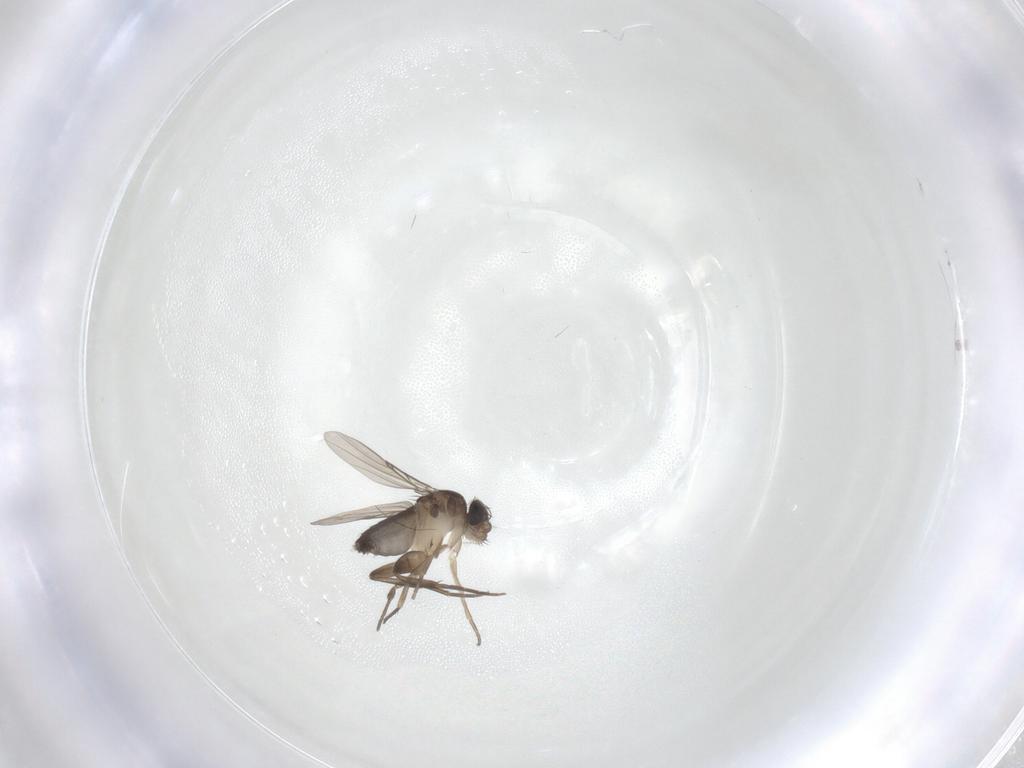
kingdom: Animalia
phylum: Arthropoda
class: Insecta
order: Diptera
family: Phoridae
